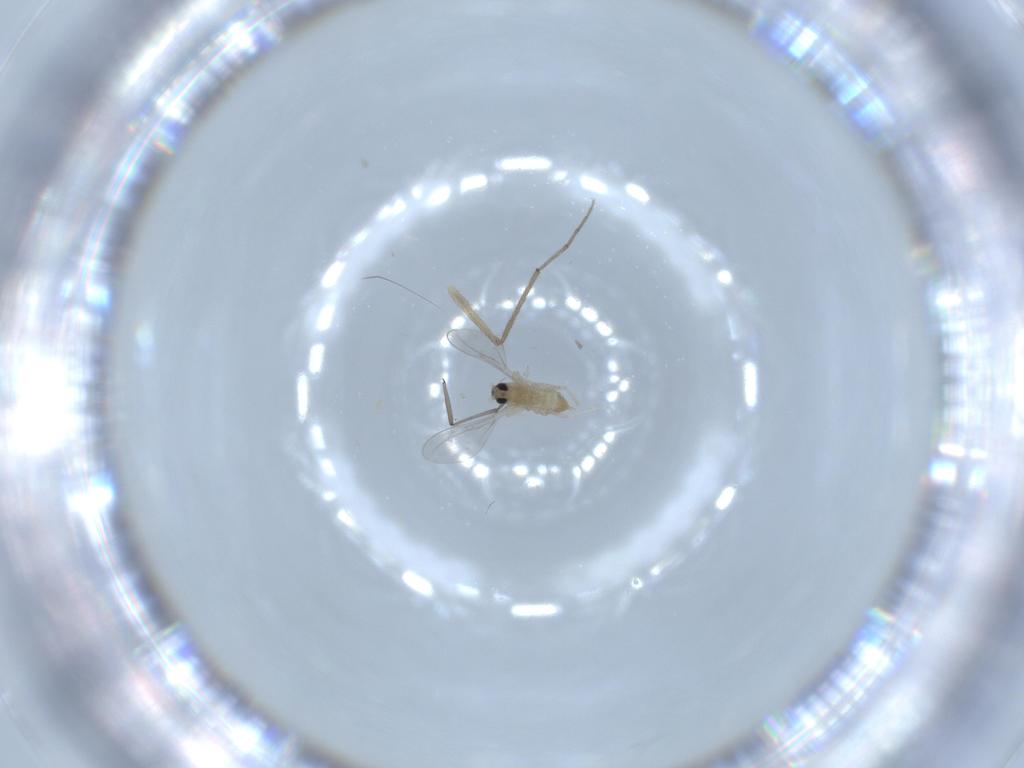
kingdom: Animalia
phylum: Arthropoda
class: Insecta
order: Diptera
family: Cecidomyiidae
